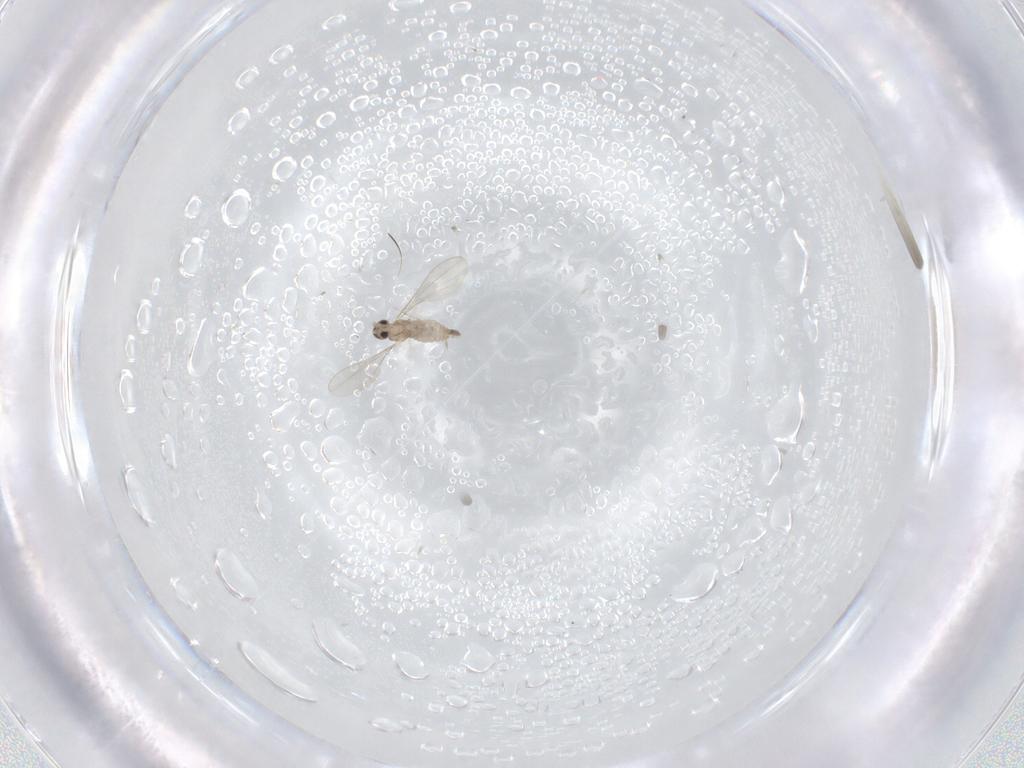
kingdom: Animalia
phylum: Arthropoda
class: Insecta
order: Diptera
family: Cecidomyiidae
